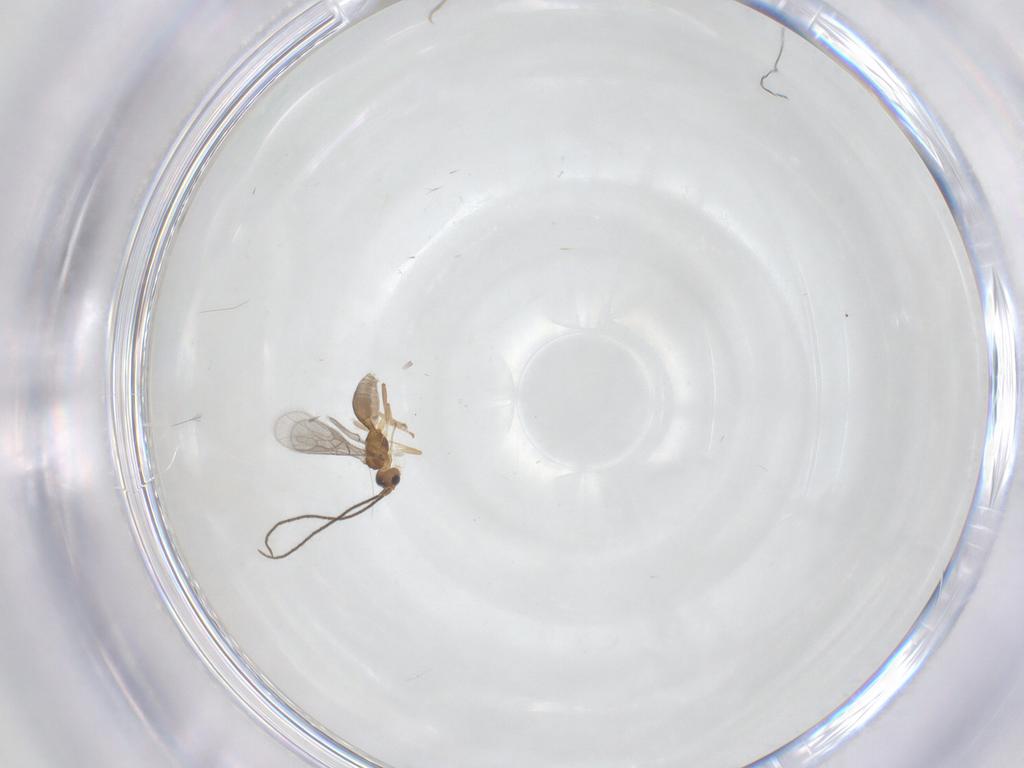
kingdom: Animalia
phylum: Arthropoda
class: Insecta
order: Hymenoptera
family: Braconidae
